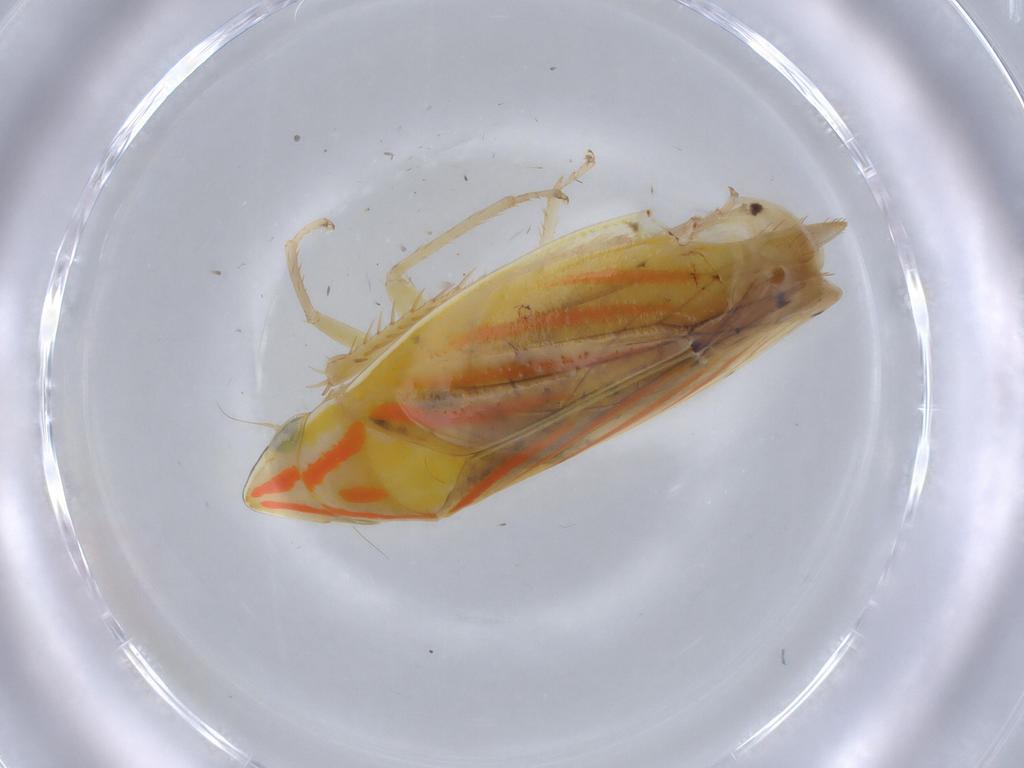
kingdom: Animalia
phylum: Arthropoda
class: Insecta
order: Hemiptera
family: Cicadellidae
